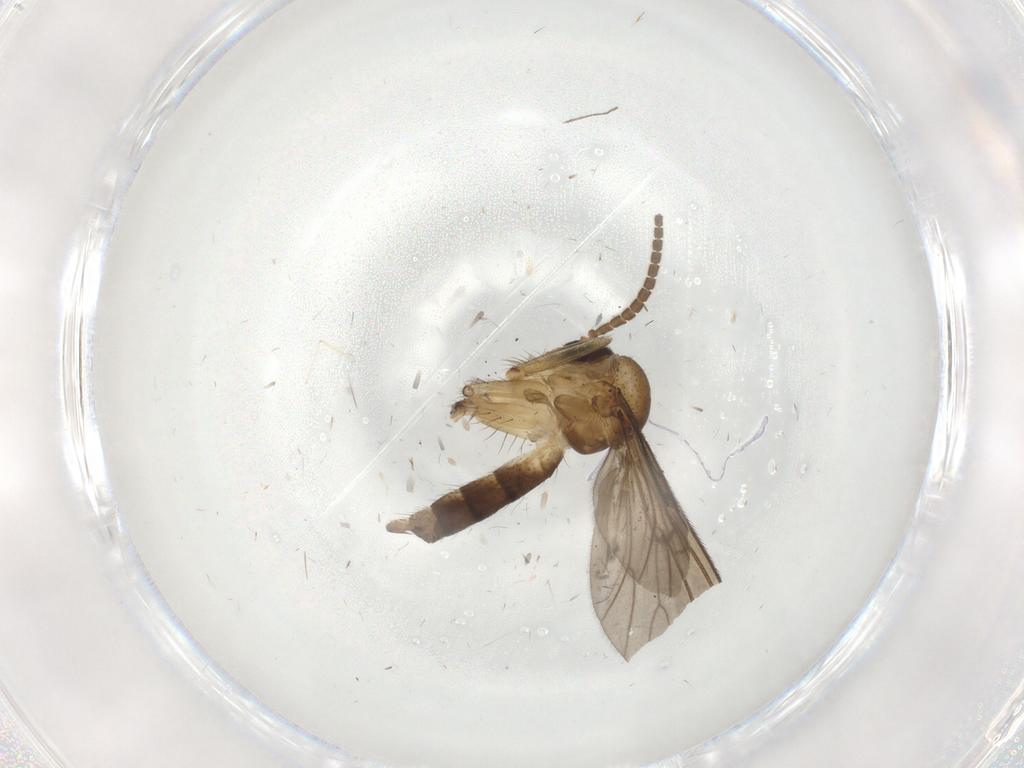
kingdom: Animalia
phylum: Arthropoda
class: Insecta
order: Diptera
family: Phoridae
